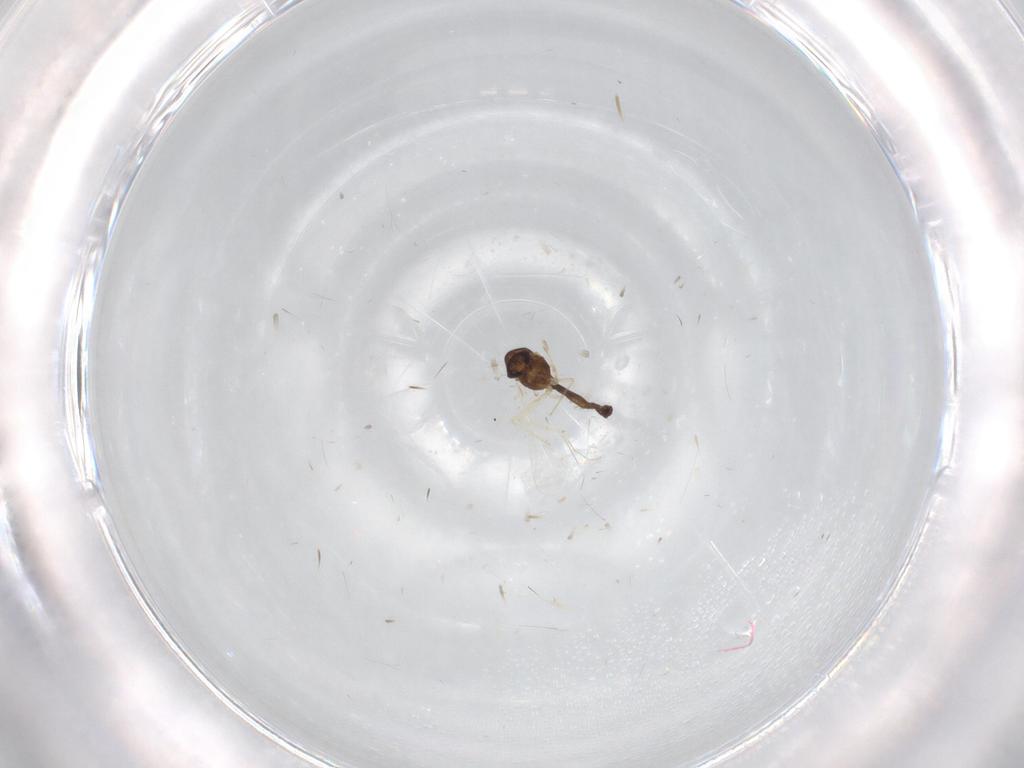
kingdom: Animalia
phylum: Arthropoda
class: Insecta
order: Diptera
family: Chironomidae
